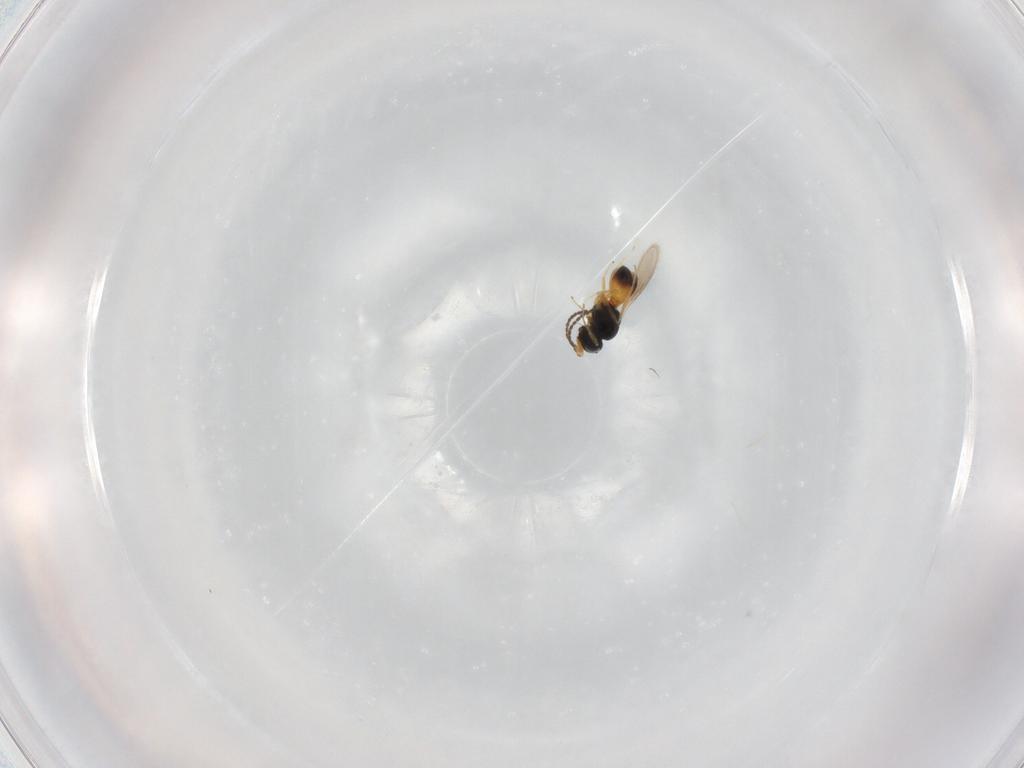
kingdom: Animalia
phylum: Arthropoda
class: Insecta
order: Hymenoptera
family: Scelionidae
